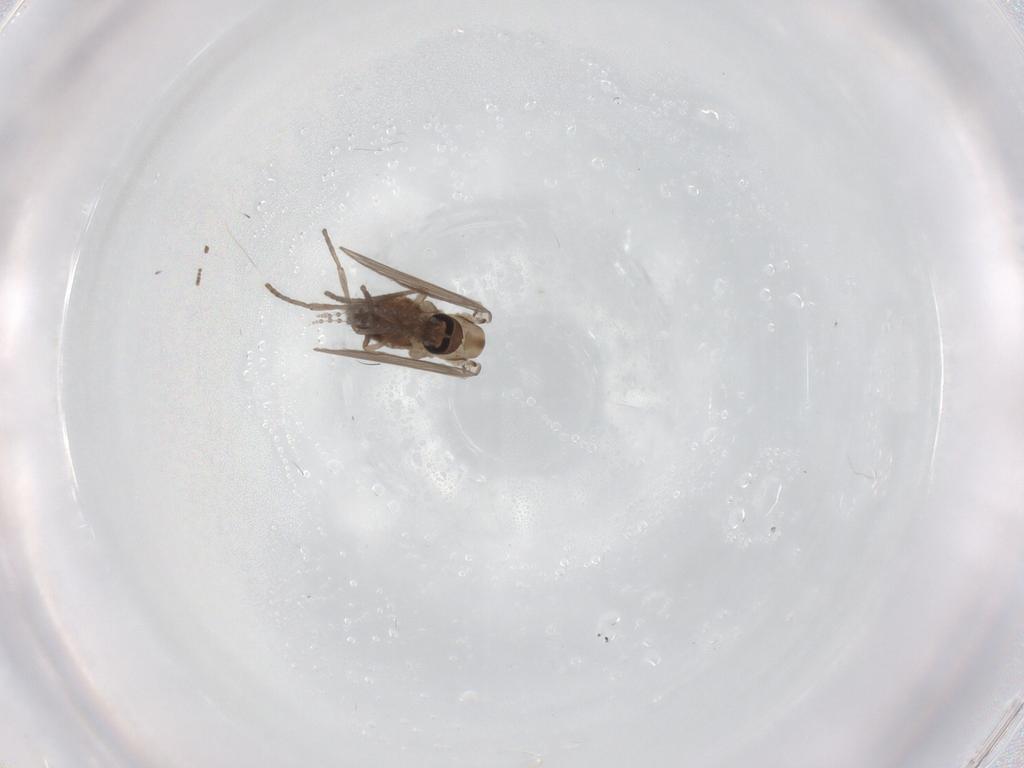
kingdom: Animalia
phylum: Arthropoda
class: Insecta
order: Diptera
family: Psychodidae
